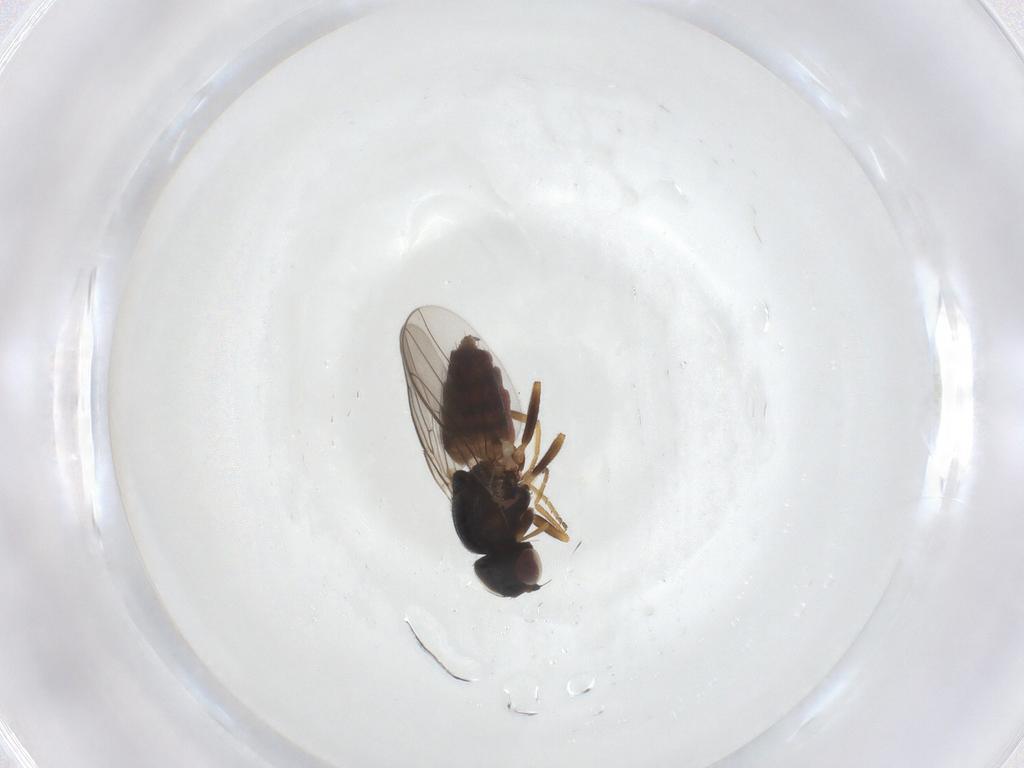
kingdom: Animalia
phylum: Arthropoda
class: Insecta
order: Diptera
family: Chloropidae
